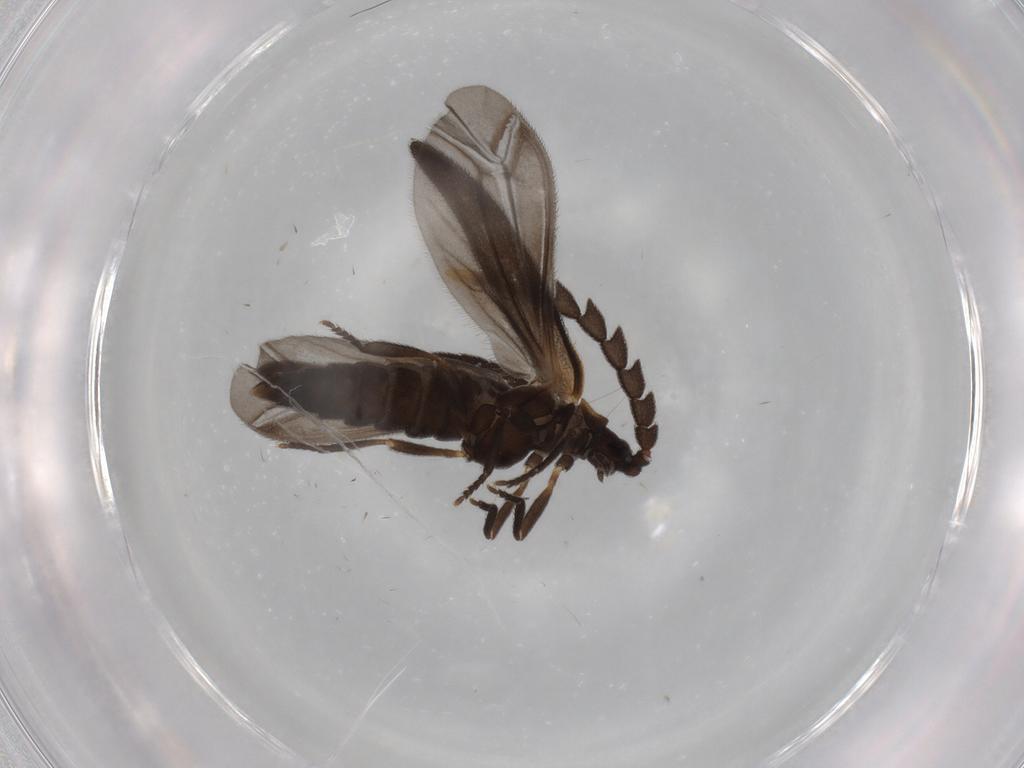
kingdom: Animalia
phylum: Arthropoda
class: Insecta
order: Coleoptera
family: Lycidae
